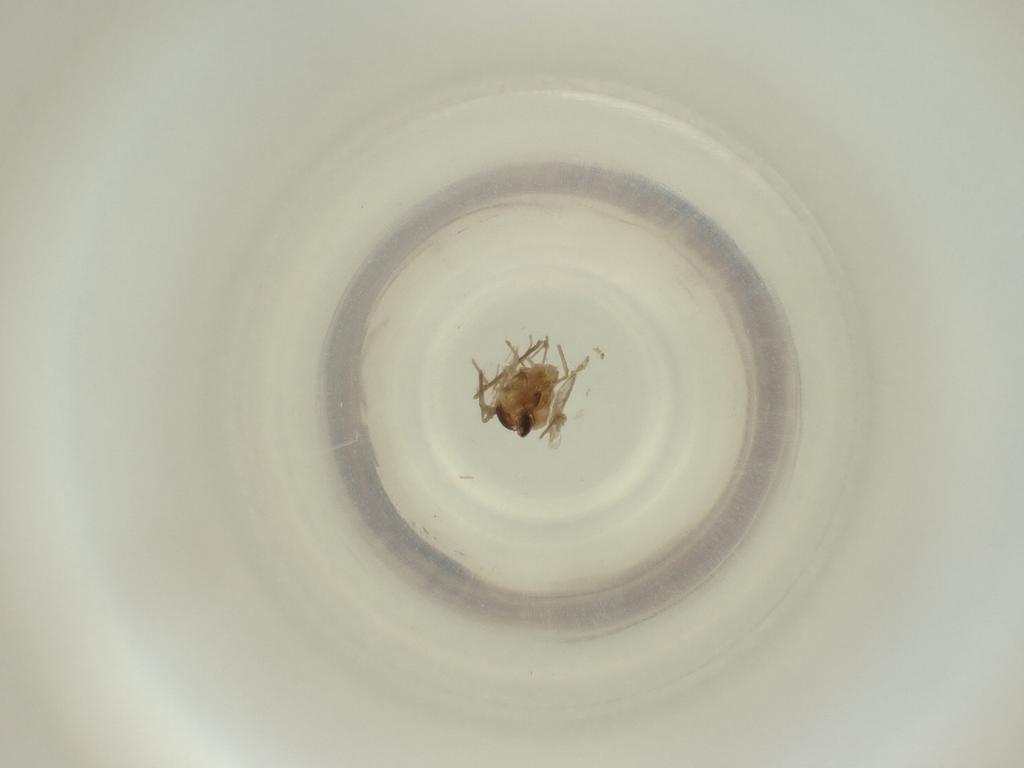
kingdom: Animalia
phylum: Arthropoda
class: Insecta
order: Diptera
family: Cecidomyiidae
